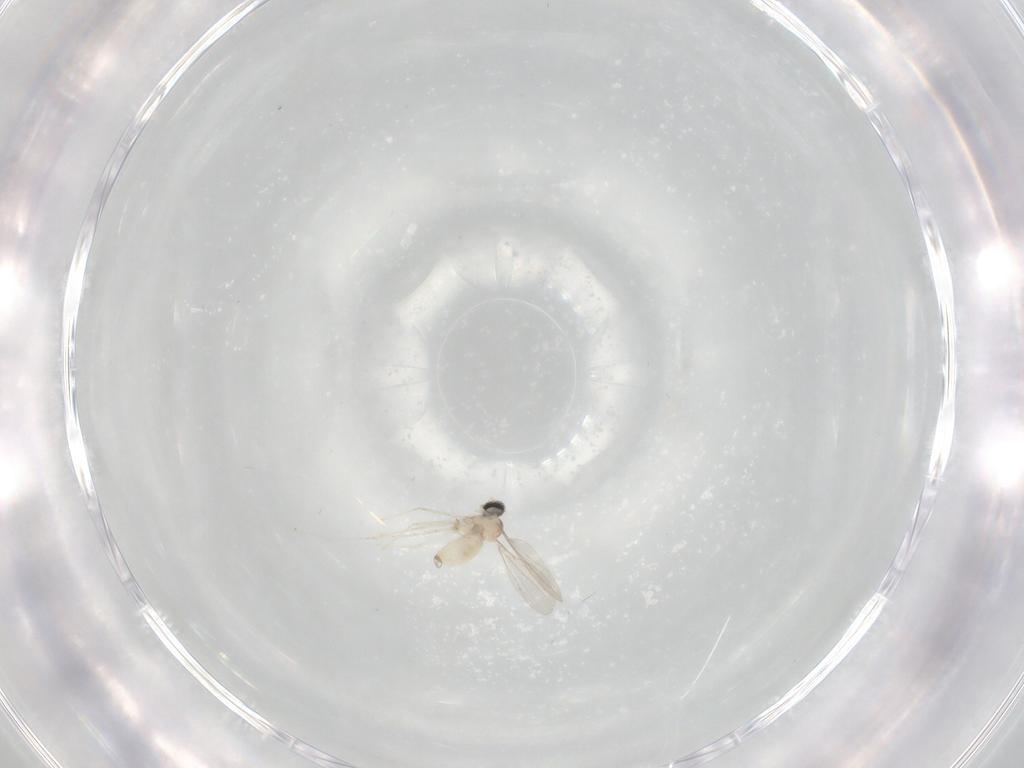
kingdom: Animalia
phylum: Arthropoda
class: Insecta
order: Diptera
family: Cecidomyiidae
